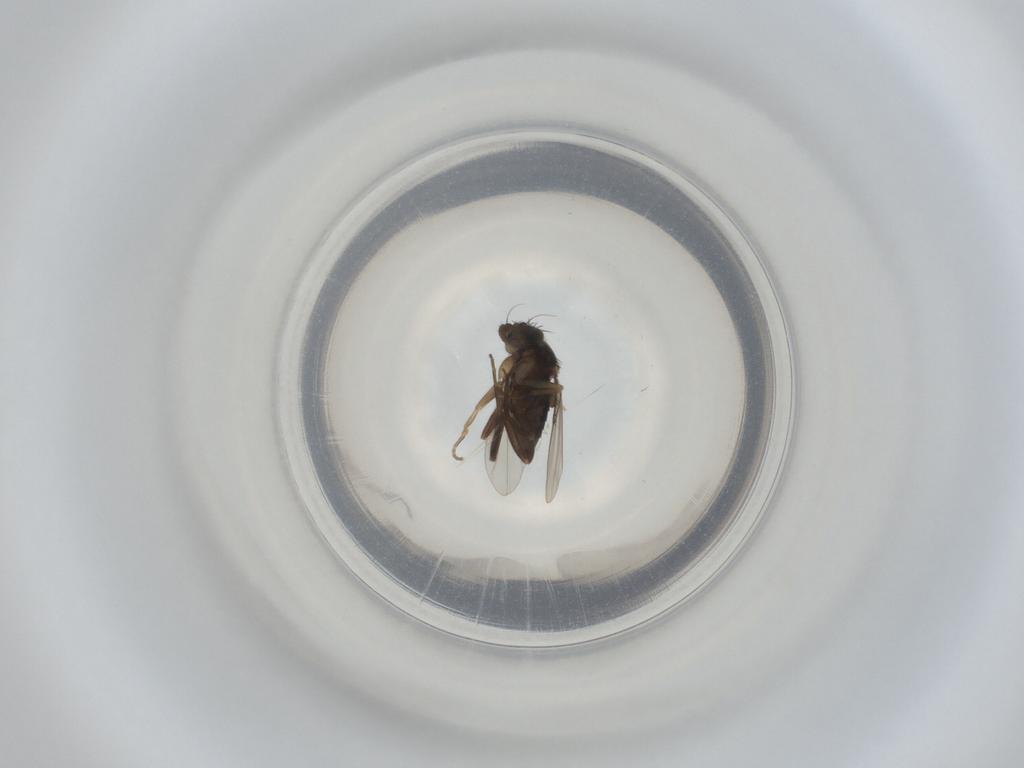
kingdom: Animalia
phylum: Arthropoda
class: Insecta
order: Diptera
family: Phoridae
